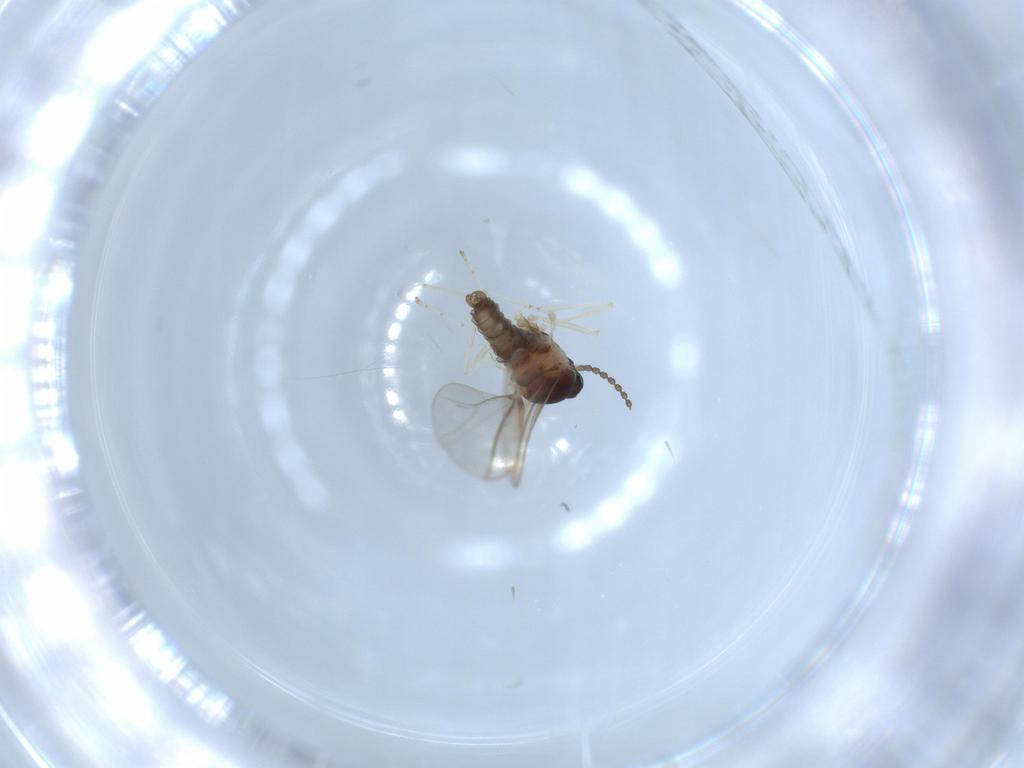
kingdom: Animalia
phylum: Arthropoda
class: Insecta
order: Diptera
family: Cecidomyiidae
